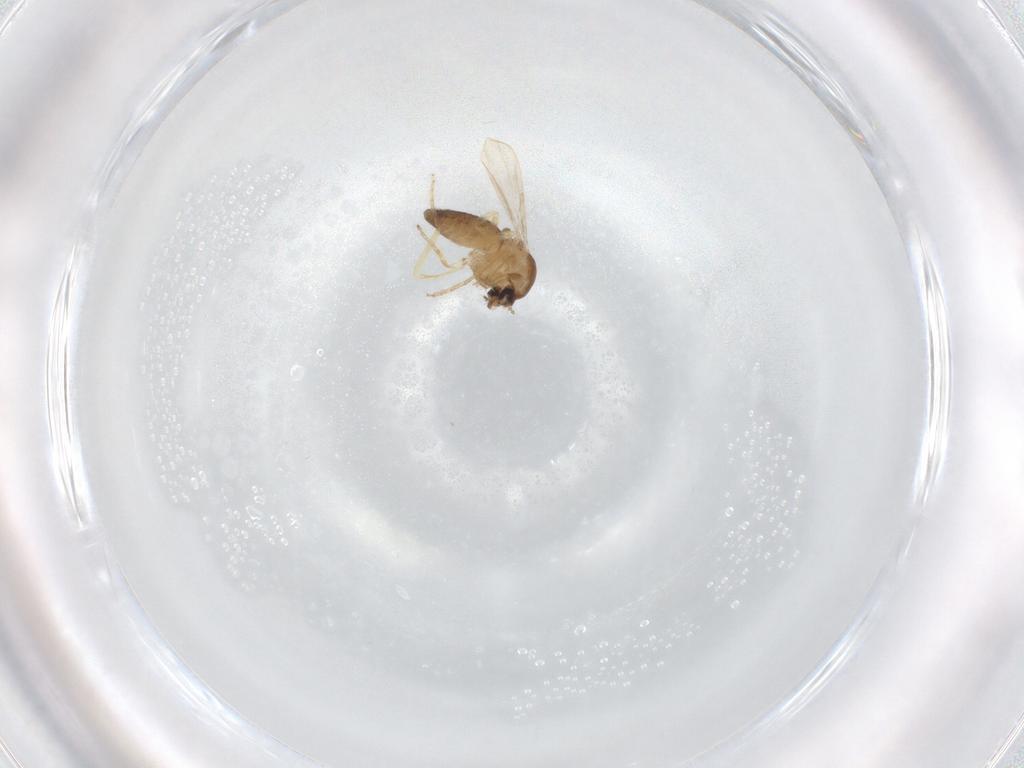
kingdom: Animalia
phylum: Arthropoda
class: Insecta
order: Diptera
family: Ceratopogonidae
